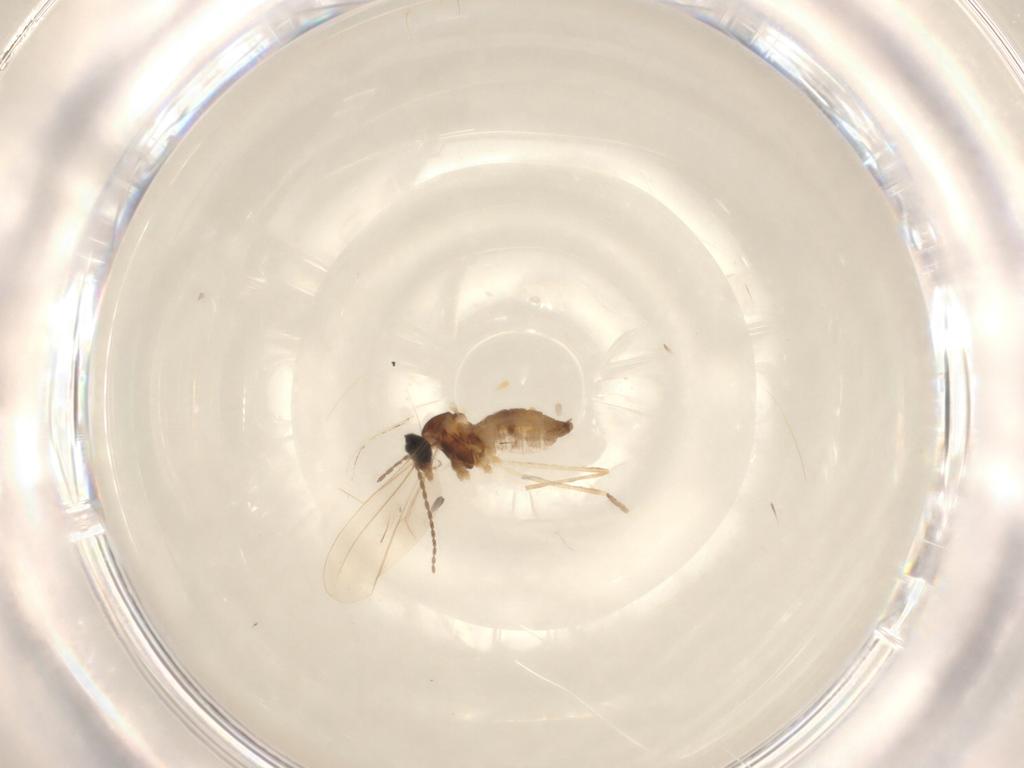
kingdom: Animalia
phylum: Arthropoda
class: Insecta
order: Diptera
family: Cecidomyiidae
